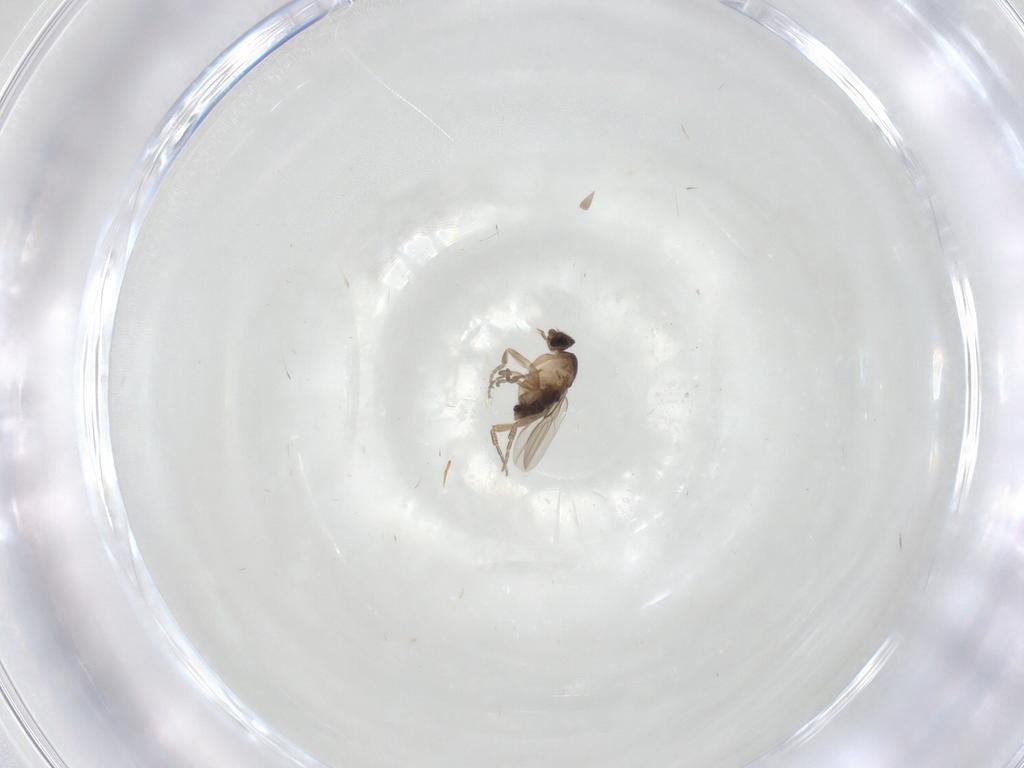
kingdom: Animalia
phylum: Arthropoda
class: Insecta
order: Diptera
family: Phoridae
